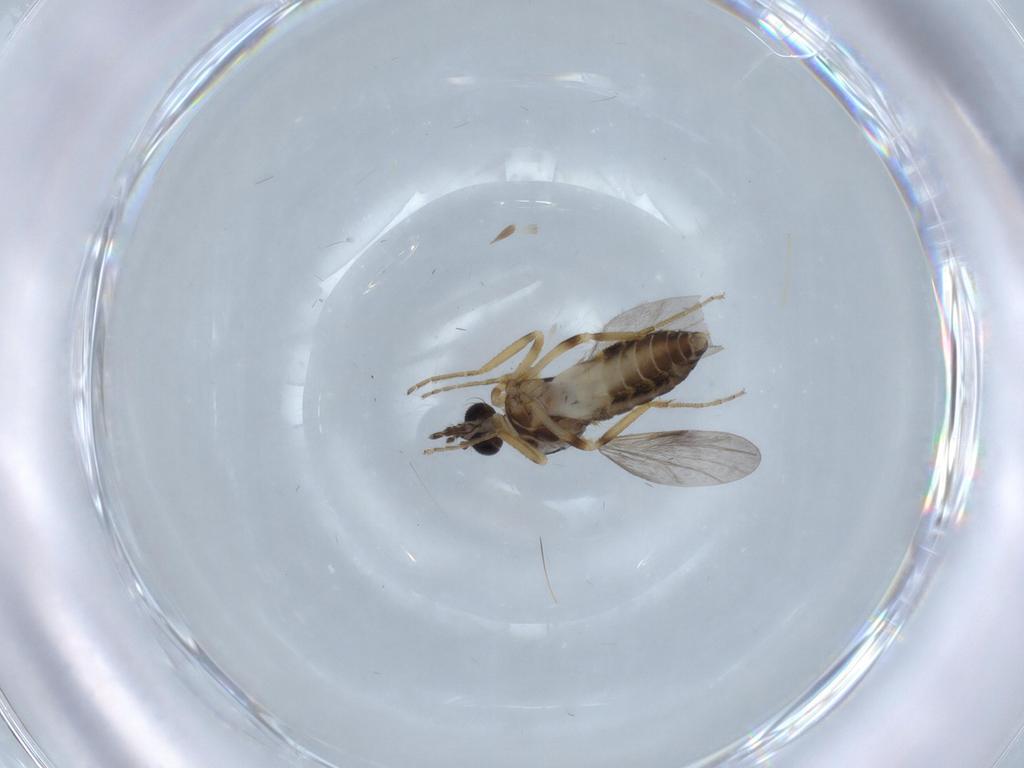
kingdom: Animalia
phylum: Arthropoda
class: Insecta
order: Diptera
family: Ceratopogonidae
